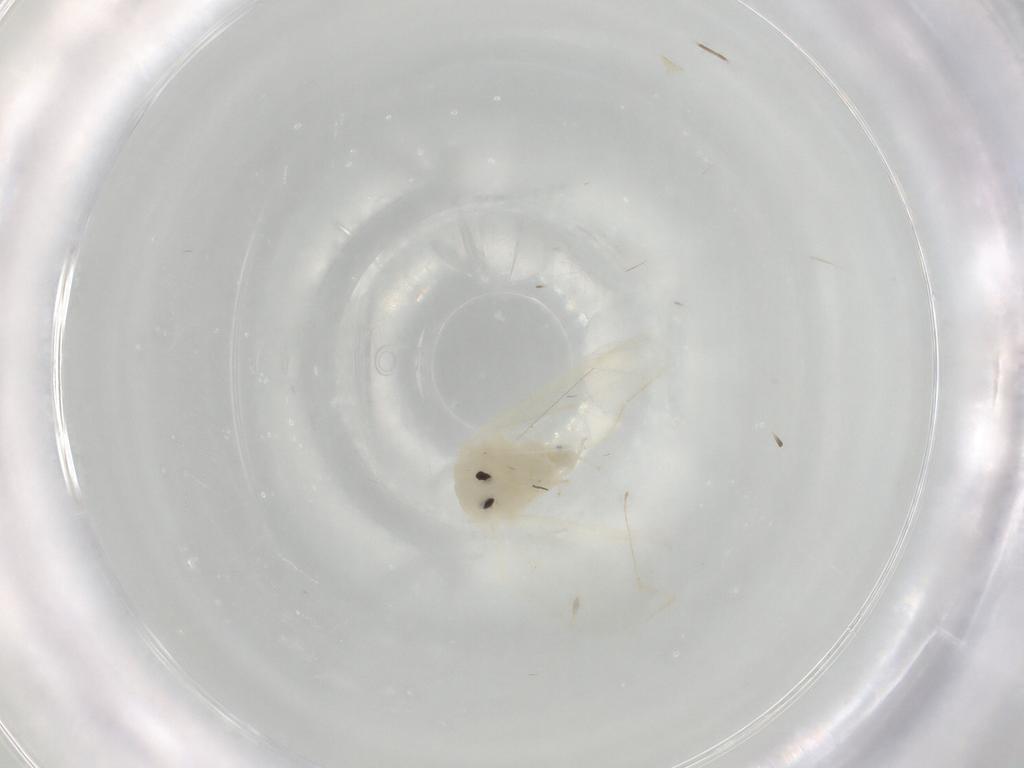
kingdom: Animalia
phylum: Arthropoda
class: Insecta
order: Hemiptera
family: Aleyrodidae
